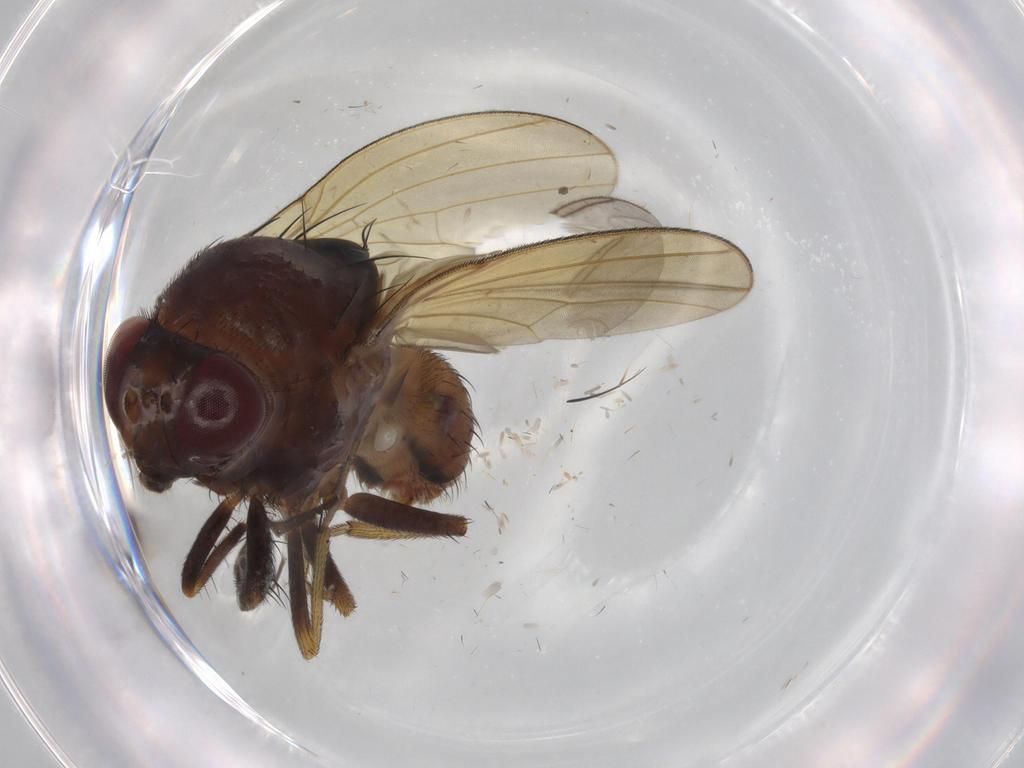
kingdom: Animalia
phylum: Arthropoda
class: Insecta
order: Diptera
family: Lauxaniidae
